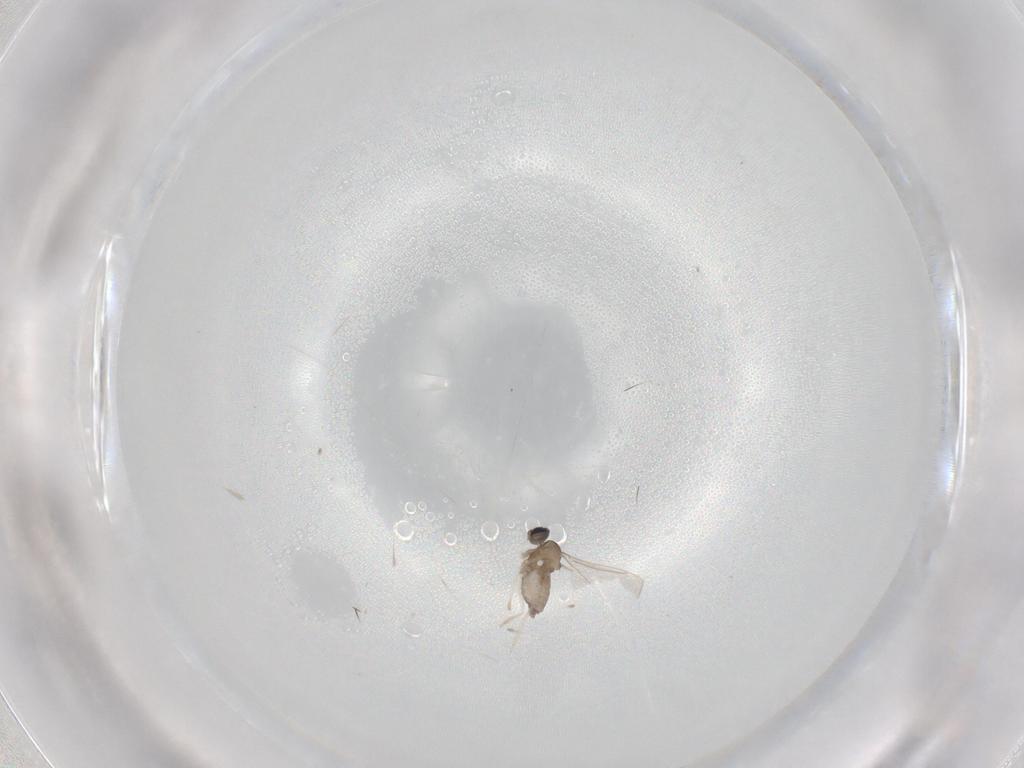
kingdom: Animalia
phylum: Arthropoda
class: Insecta
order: Diptera
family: Cecidomyiidae
